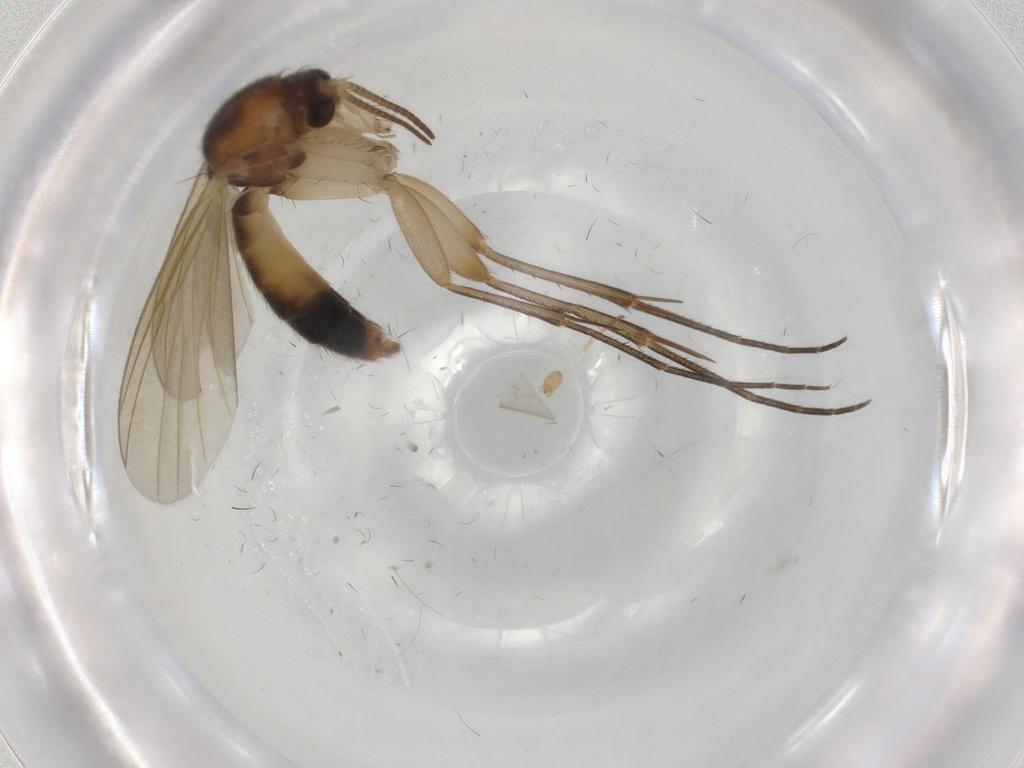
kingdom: Animalia
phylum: Arthropoda
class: Insecta
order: Diptera
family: Mycetophilidae
